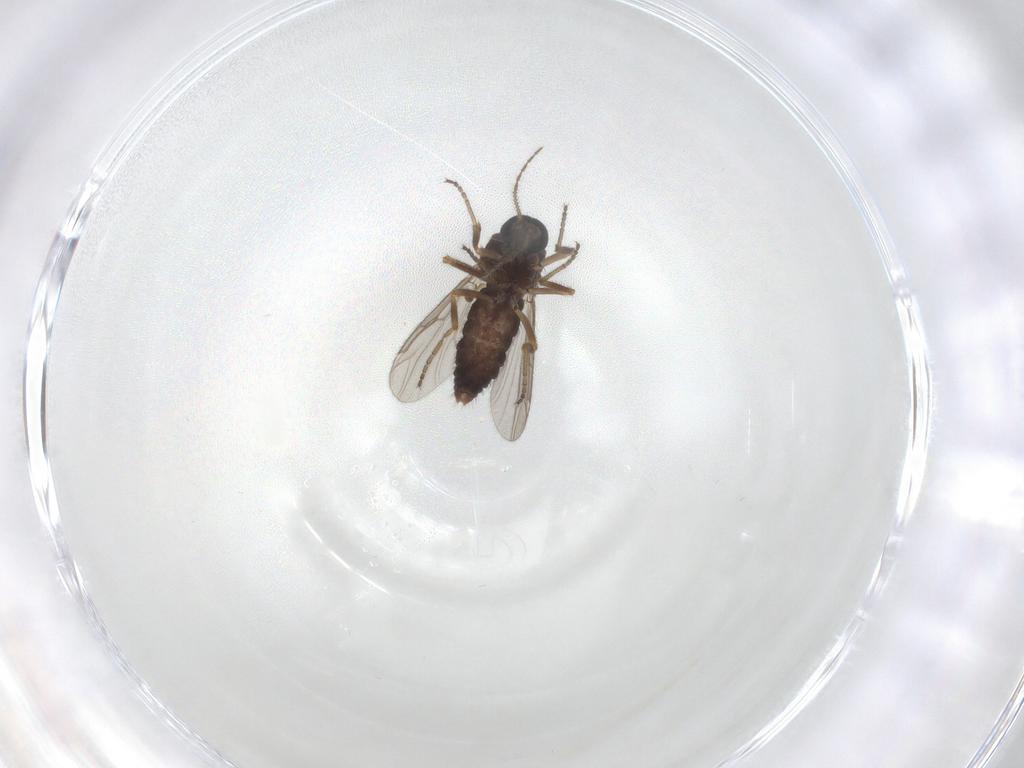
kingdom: Animalia
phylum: Arthropoda
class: Insecta
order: Diptera
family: Ceratopogonidae
